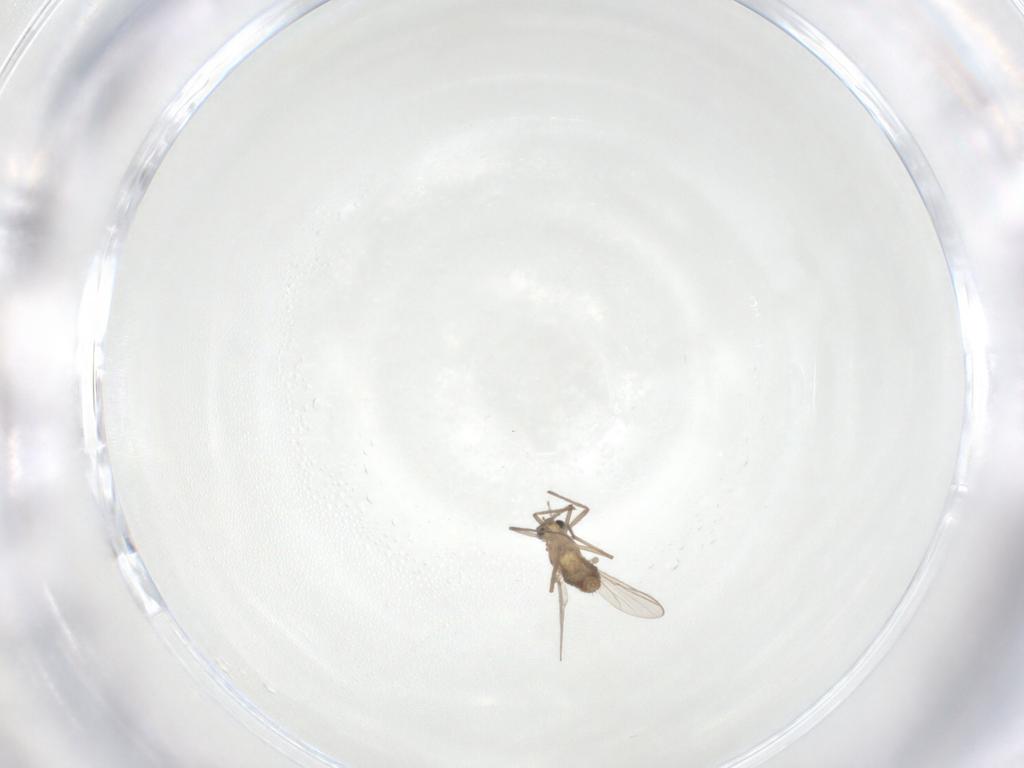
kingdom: Animalia
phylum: Arthropoda
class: Insecta
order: Diptera
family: Chironomidae
